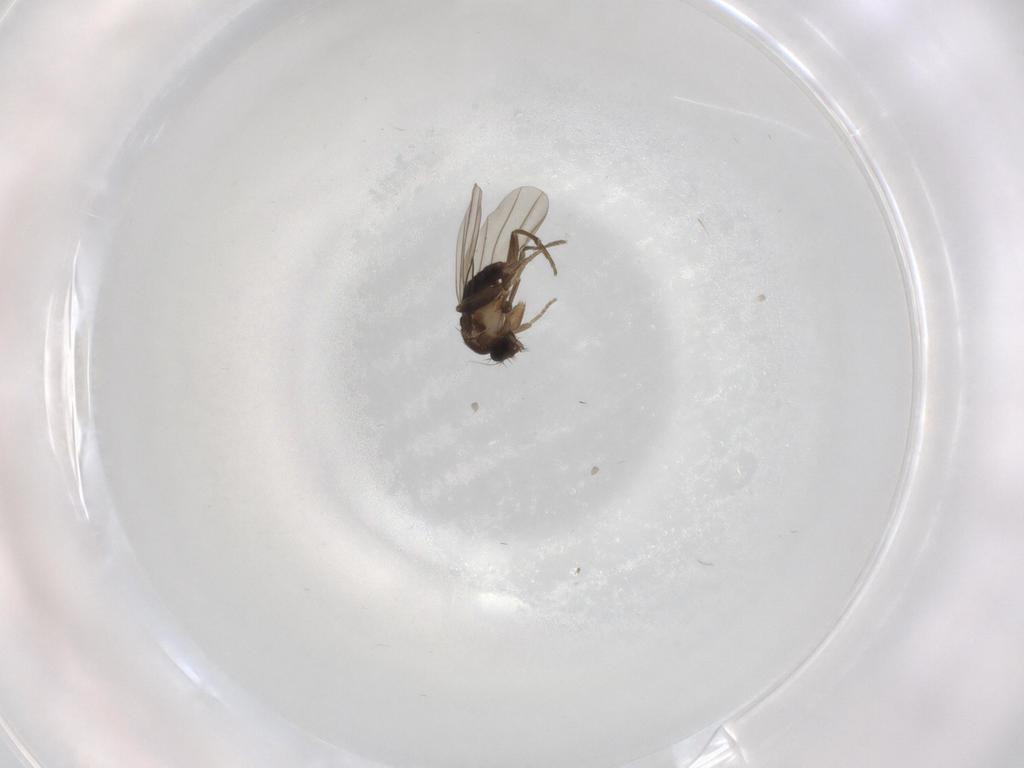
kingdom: Animalia
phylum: Arthropoda
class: Insecta
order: Diptera
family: Phoridae
